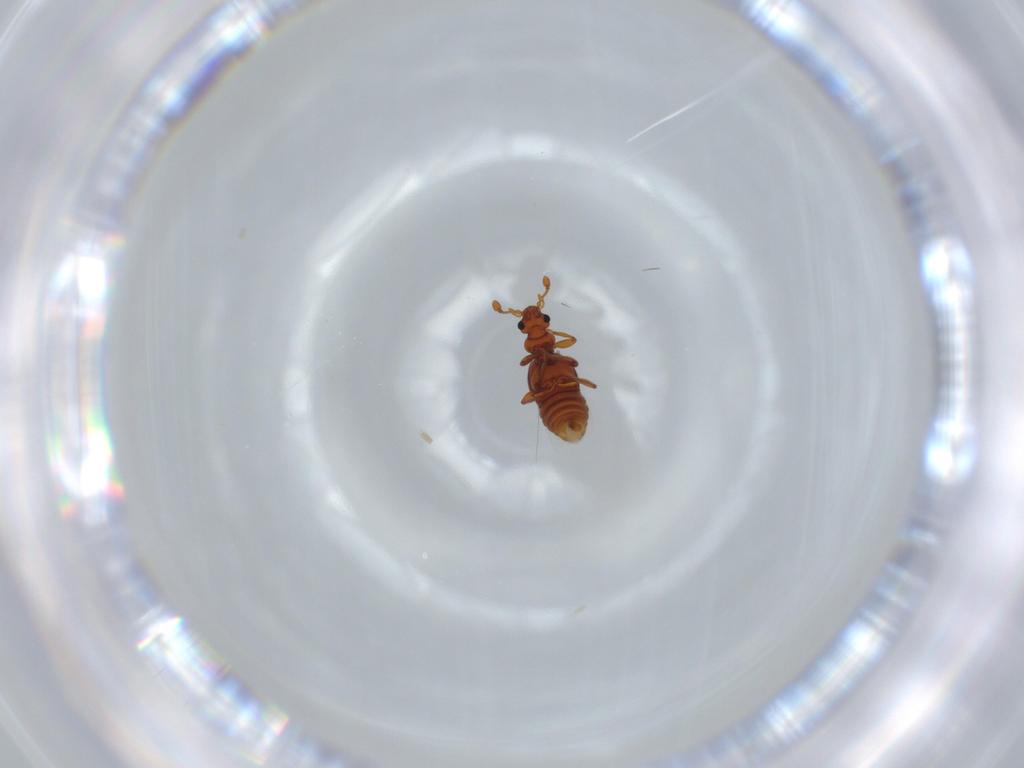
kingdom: Animalia
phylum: Arthropoda
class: Insecta
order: Coleoptera
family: Staphylinidae
